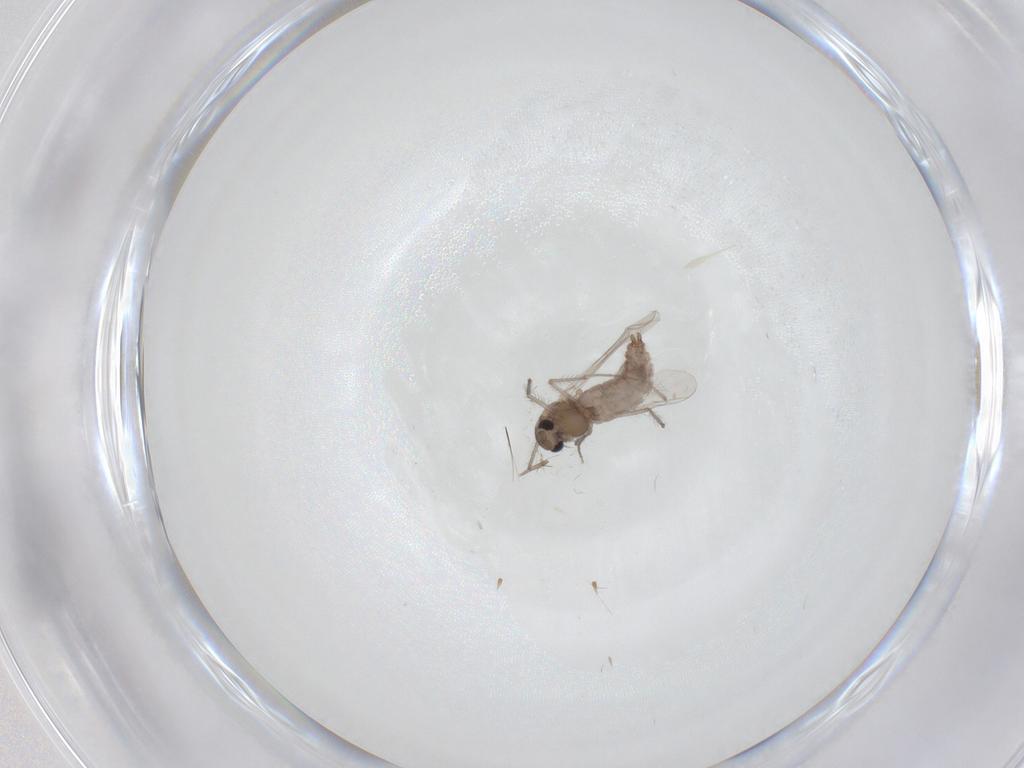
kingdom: Animalia
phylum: Arthropoda
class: Insecta
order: Diptera
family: Chironomidae
